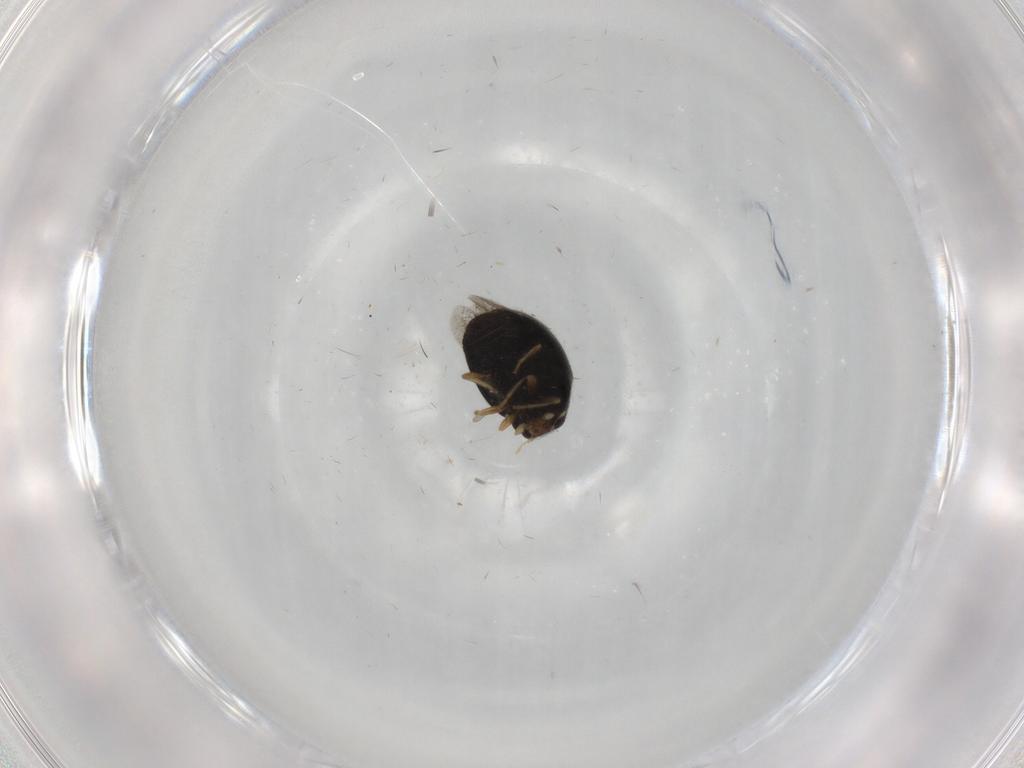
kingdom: Animalia
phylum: Arthropoda
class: Insecta
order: Coleoptera
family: Coccinellidae
